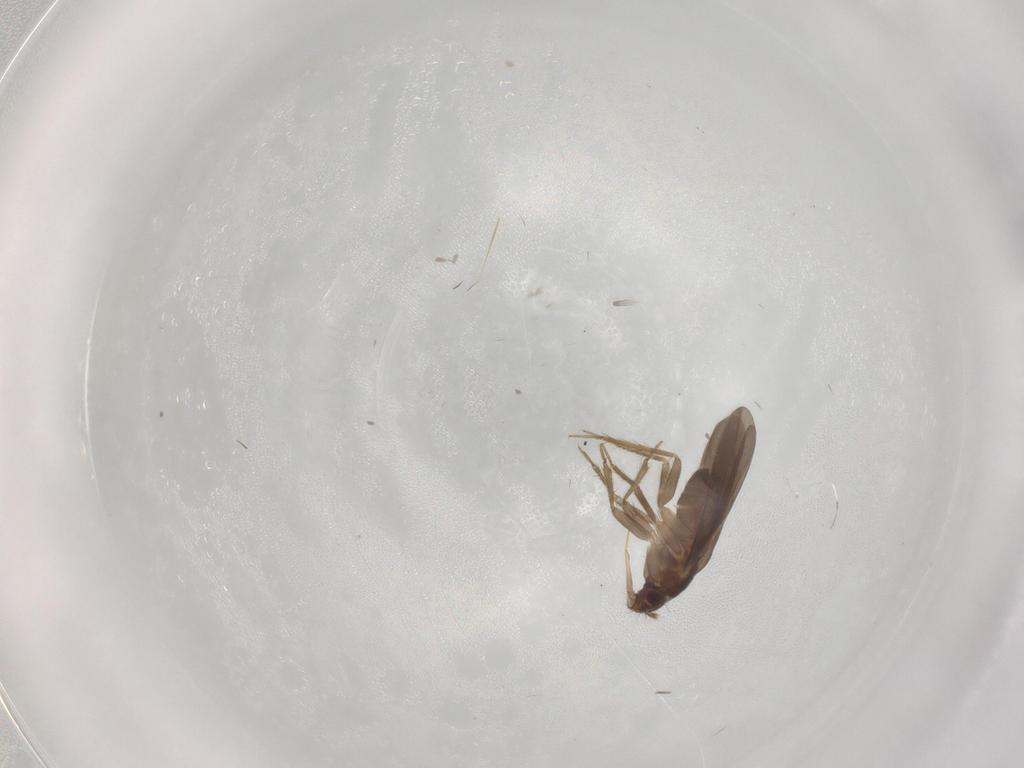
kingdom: Animalia
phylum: Arthropoda
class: Insecta
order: Hemiptera
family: Ceratocombidae
